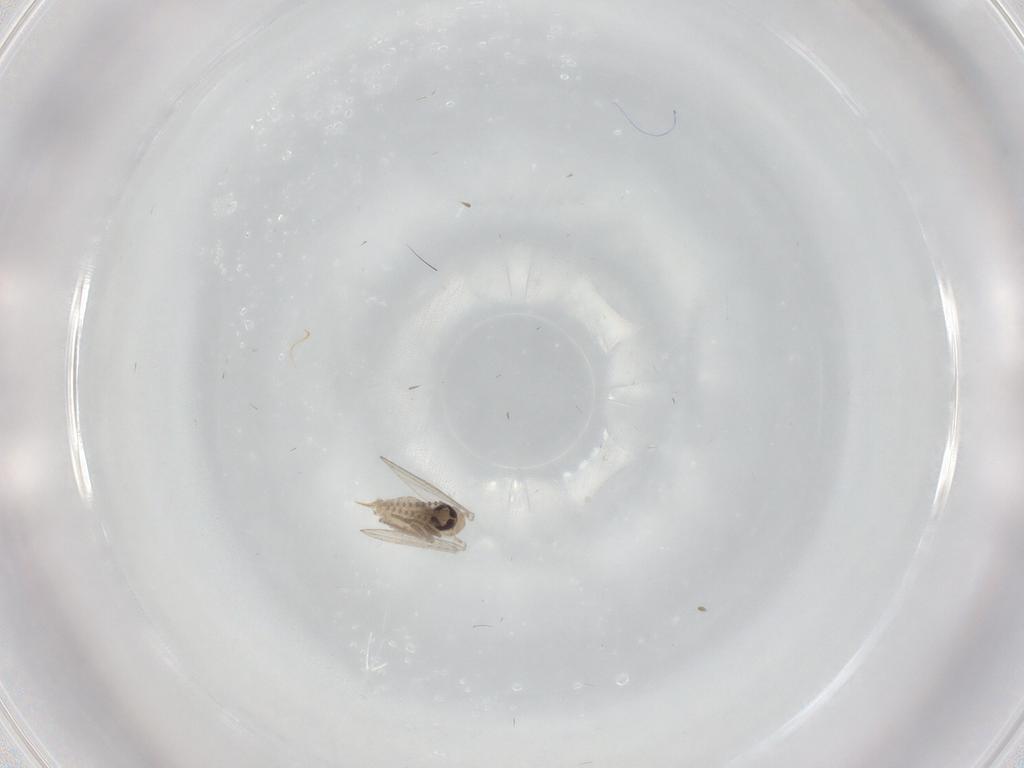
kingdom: Animalia
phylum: Arthropoda
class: Insecta
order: Diptera
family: Psychodidae
